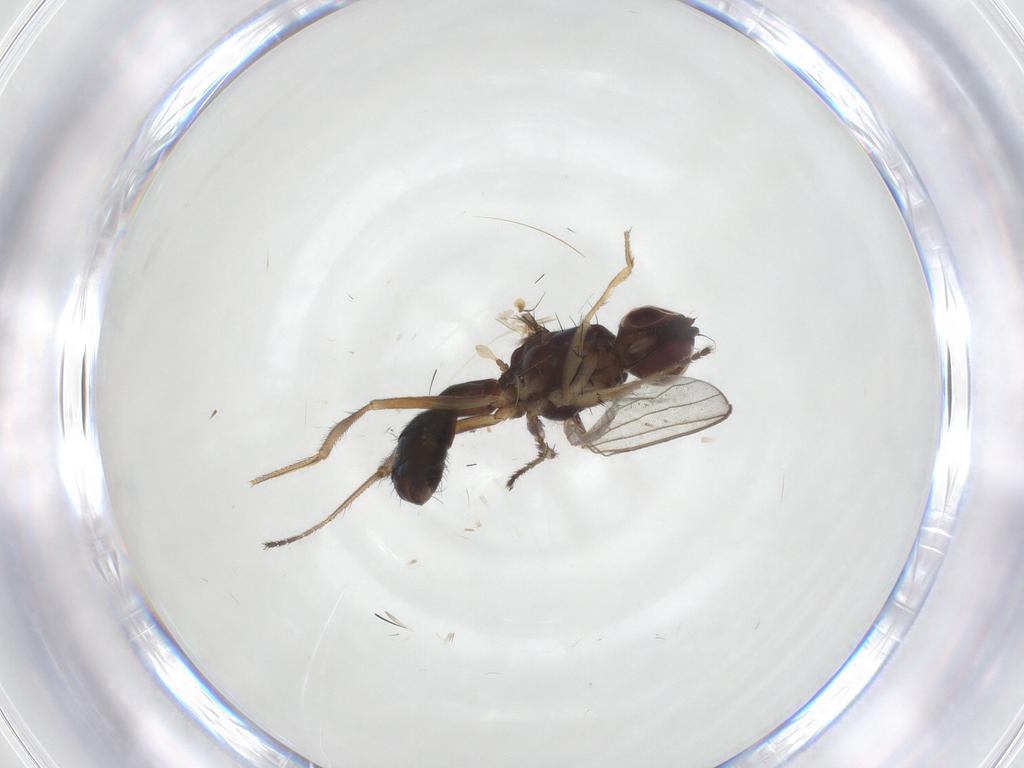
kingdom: Animalia
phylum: Arthropoda
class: Insecta
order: Diptera
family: Sepsidae
